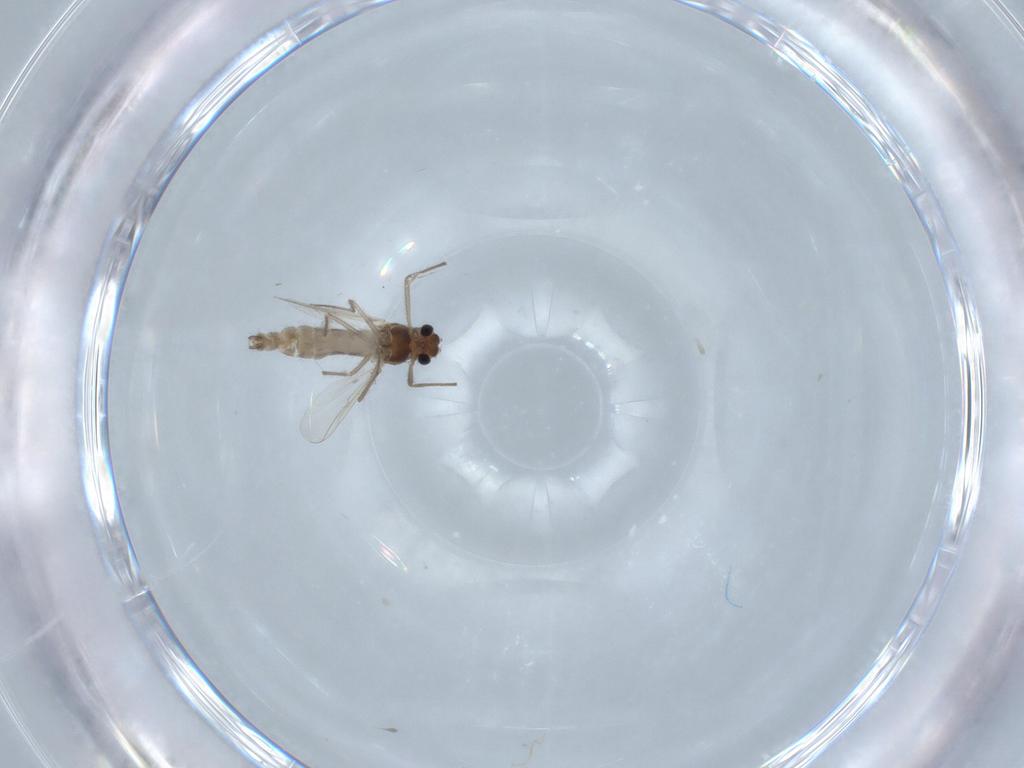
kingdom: Animalia
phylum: Arthropoda
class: Insecta
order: Diptera
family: Chironomidae
